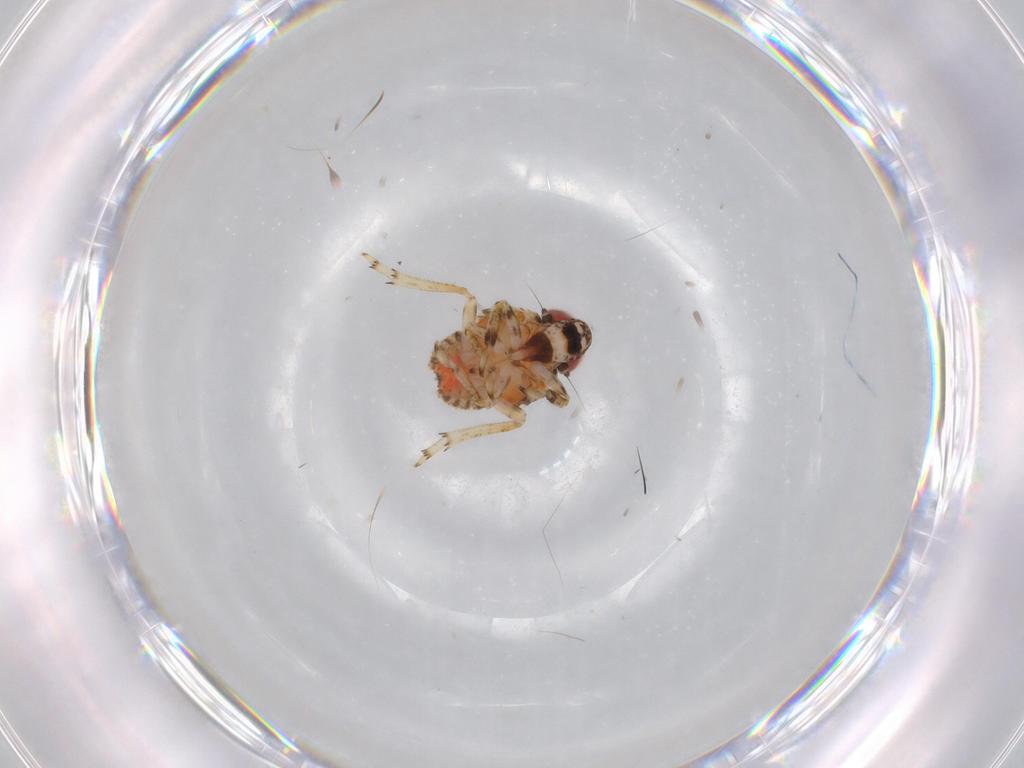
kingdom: Animalia
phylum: Arthropoda
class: Insecta
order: Hemiptera
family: Issidae
